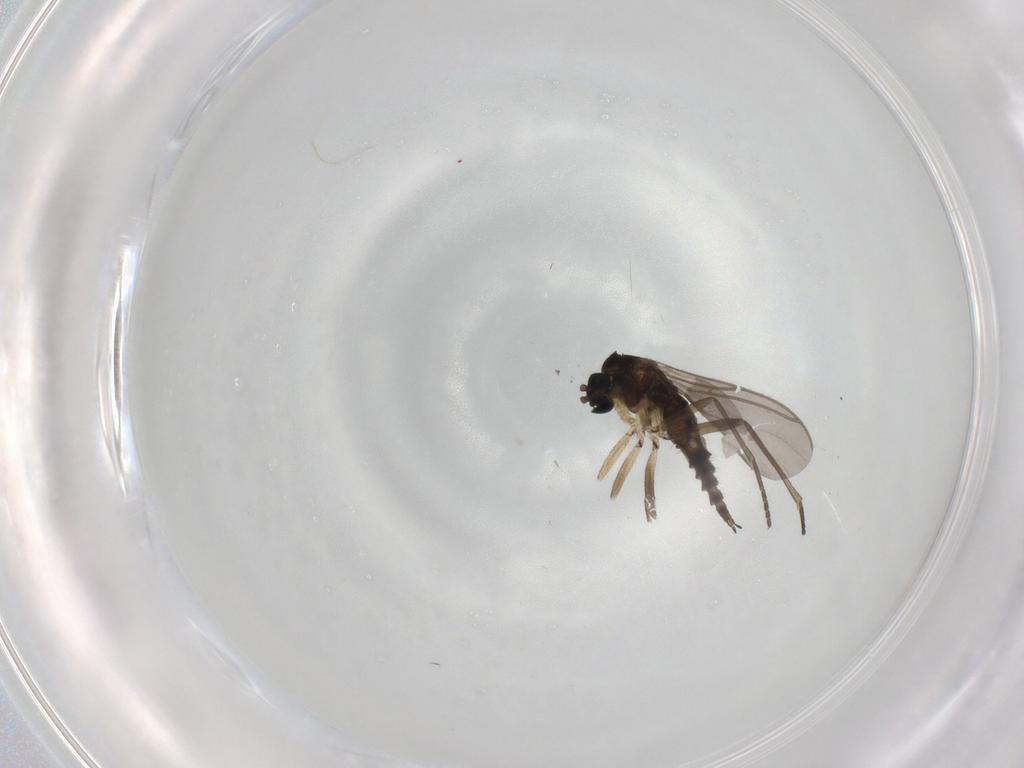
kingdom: Animalia
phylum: Arthropoda
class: Insecta
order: Diptera
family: Sciaridae
